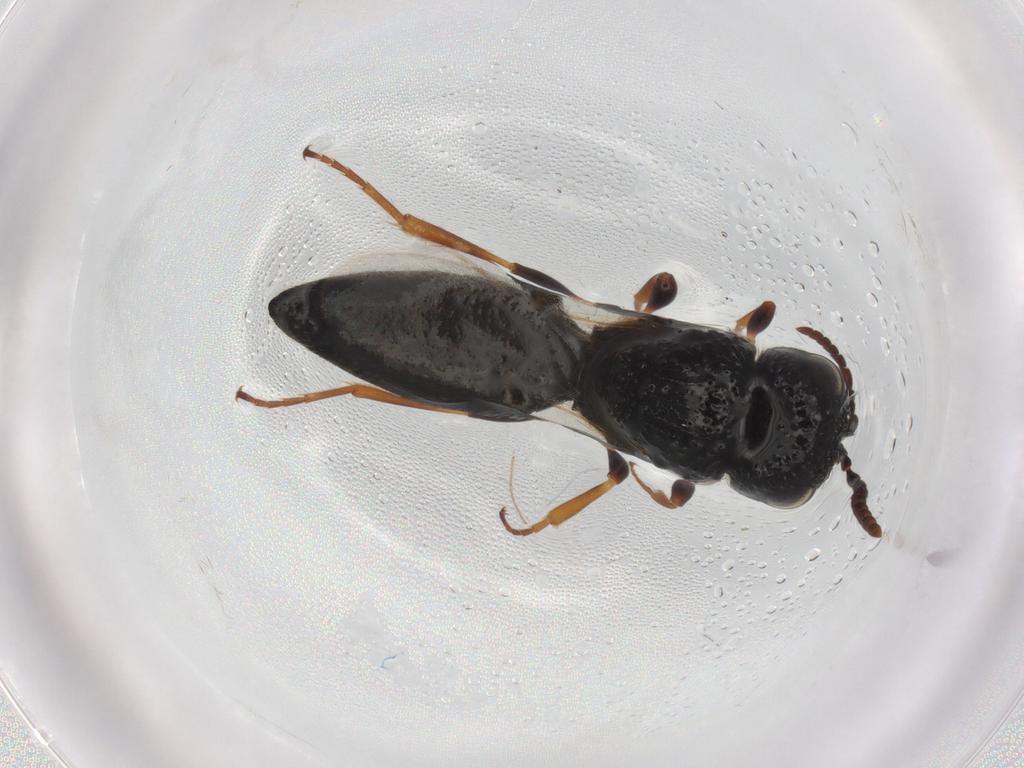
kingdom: Animalia
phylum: Arthropoda
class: Insecta
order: Hymenoptera
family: Scelionidae
